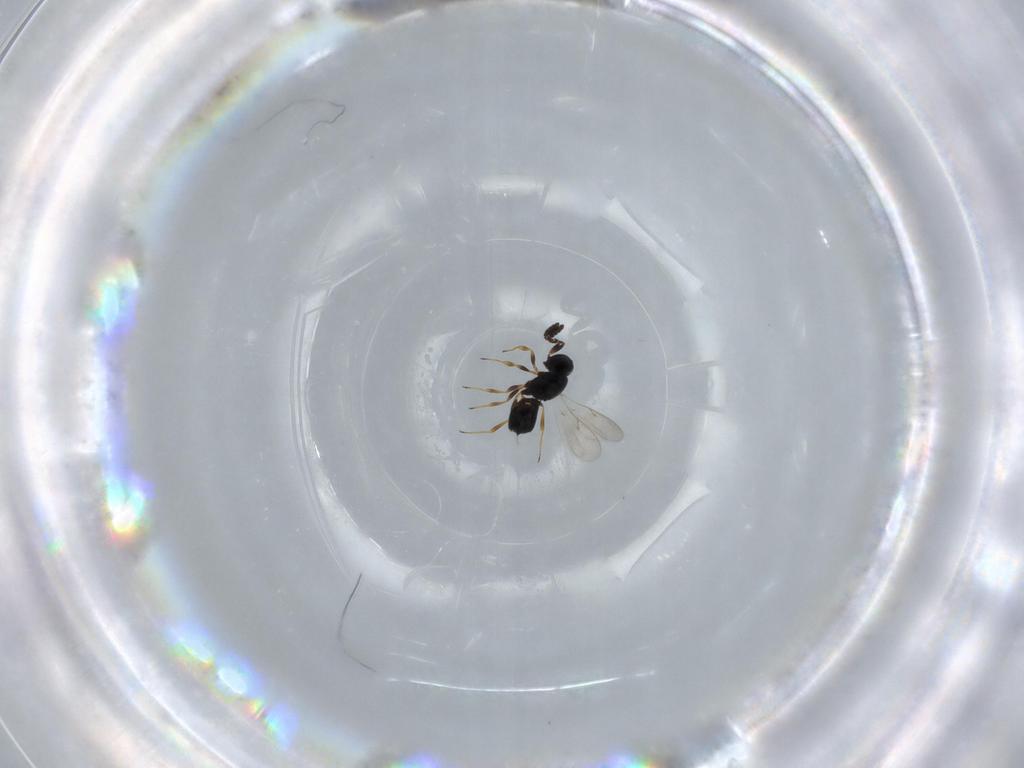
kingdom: Animalia
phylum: Arthropoda
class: Insecta
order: Hymenoptera
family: Scelionidae
